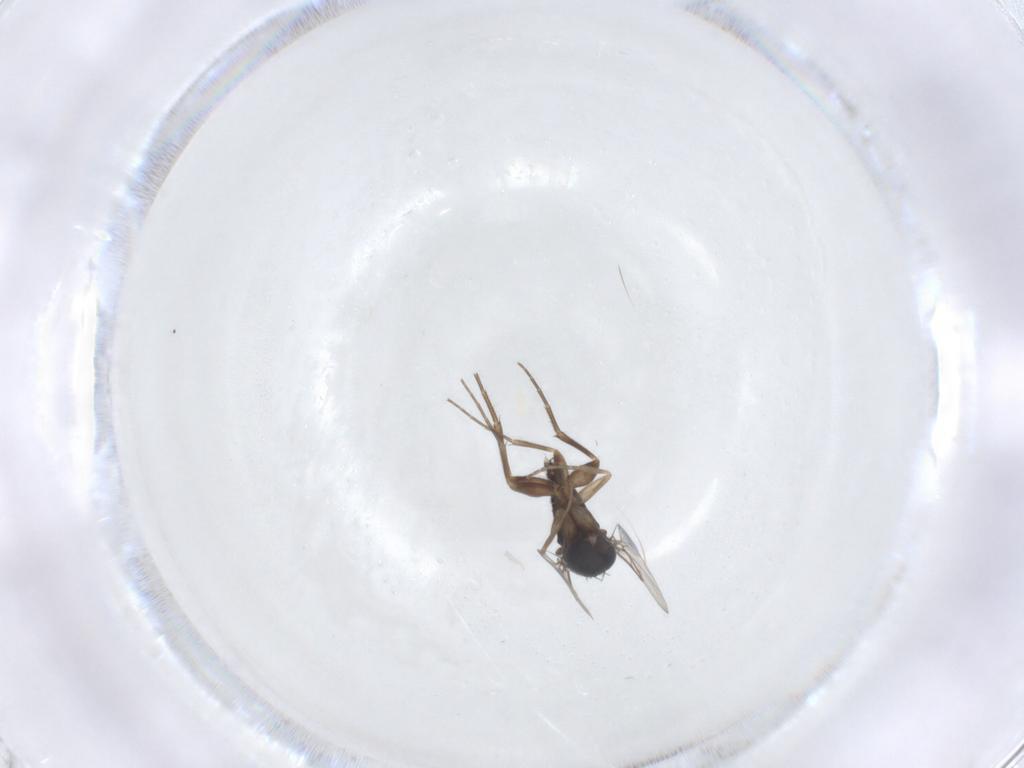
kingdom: Animalia
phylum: Arthropoda
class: Insecta
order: Diptera
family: Phoridae
